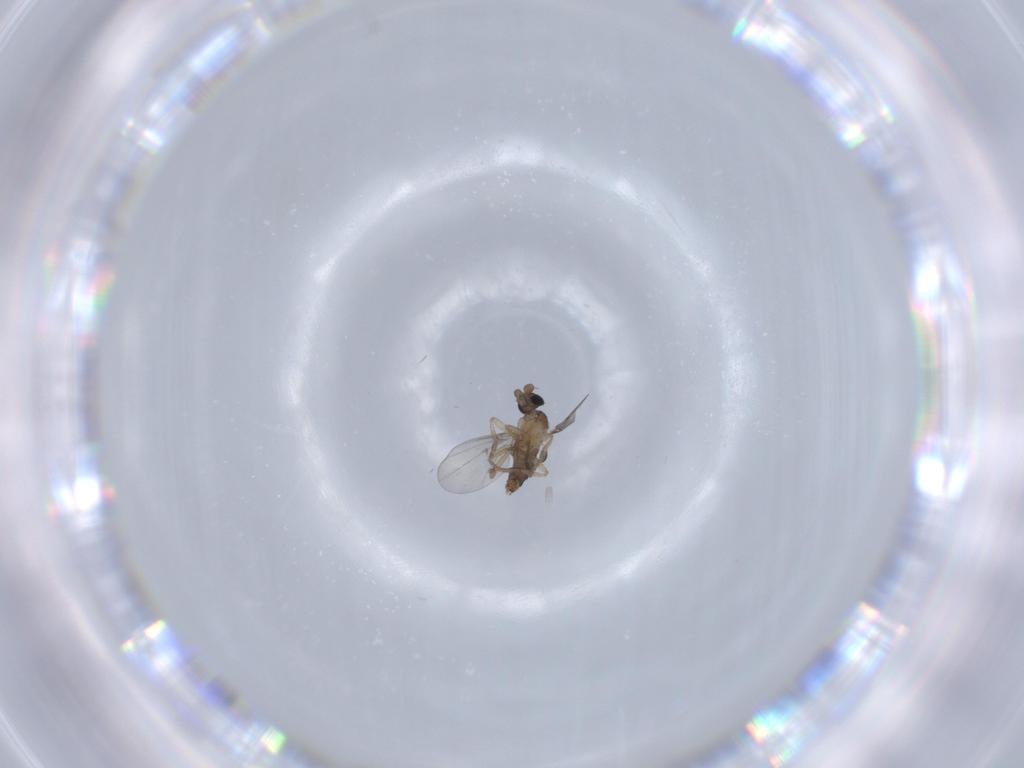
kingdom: Animalia
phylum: Arthropoda
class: Insecta
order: Diptera
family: Phoridae
